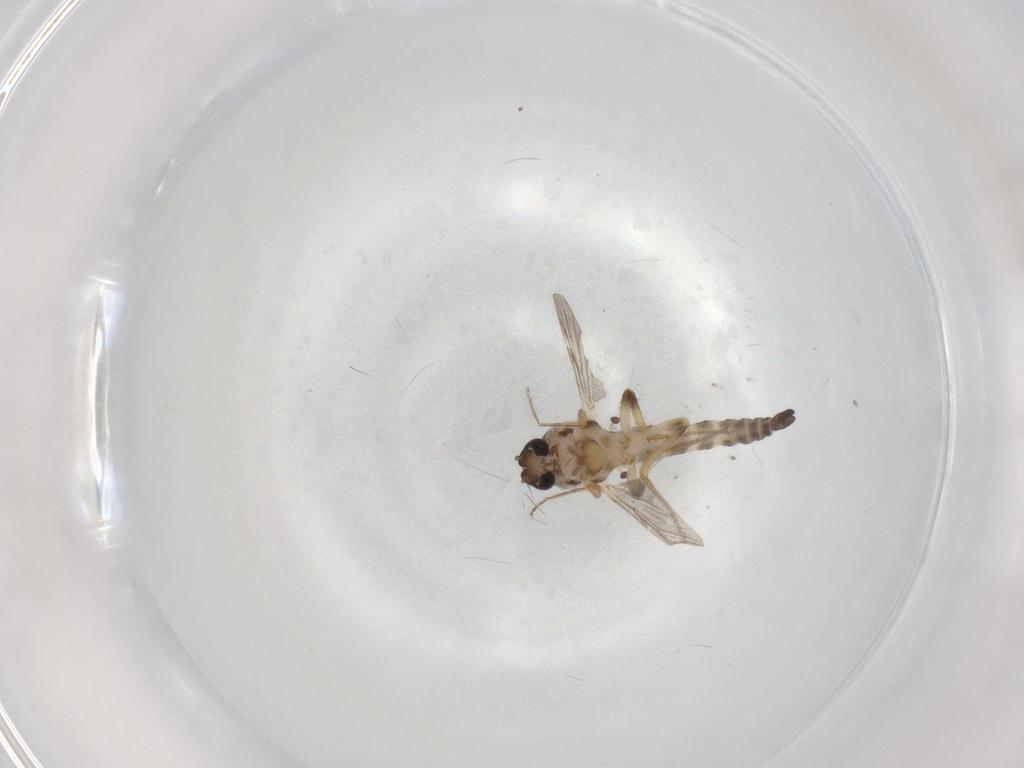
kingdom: Animalia
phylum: Arthropoda
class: Insecta
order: Diptera
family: Ceratopogonidae
